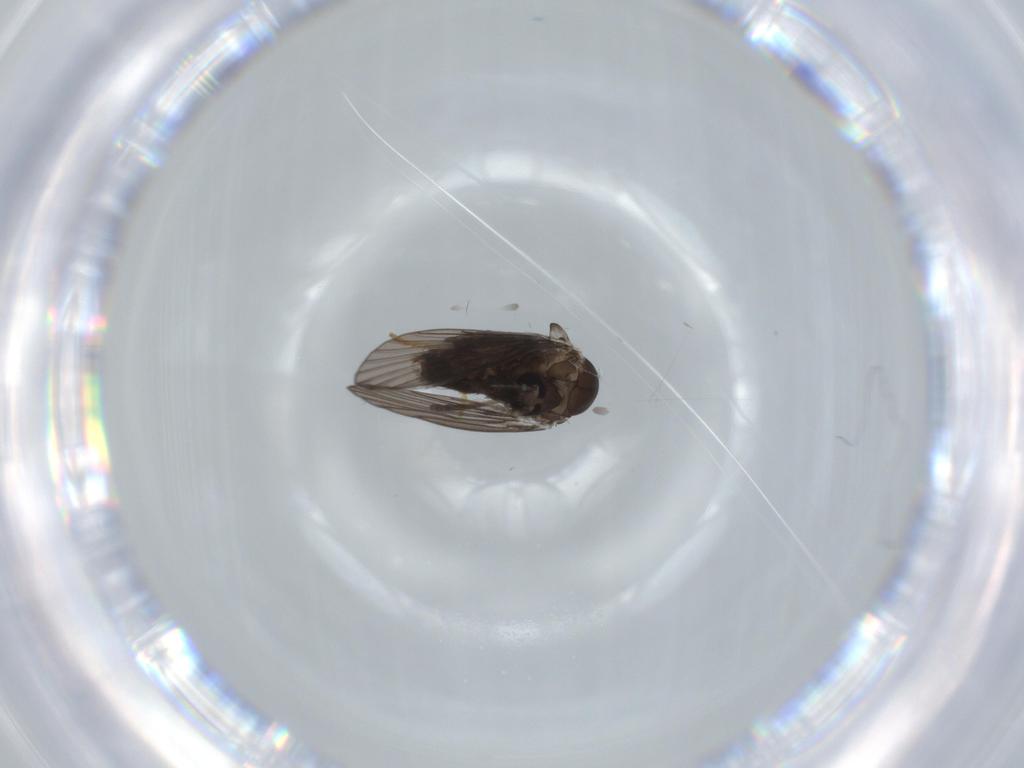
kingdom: Animalia
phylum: Arthropoda
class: Insecta
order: Diptera
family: Psychodidae
